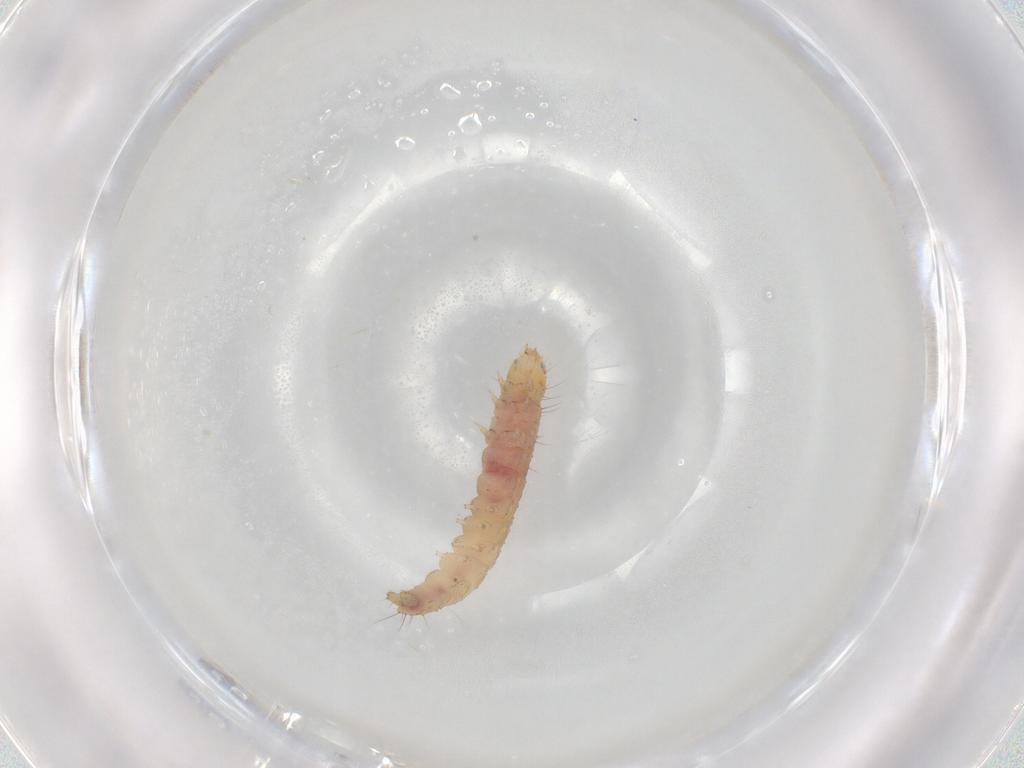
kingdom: Animalia
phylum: Arthropoda
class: Insecta
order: Lepidoptera
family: Gelechiidae
